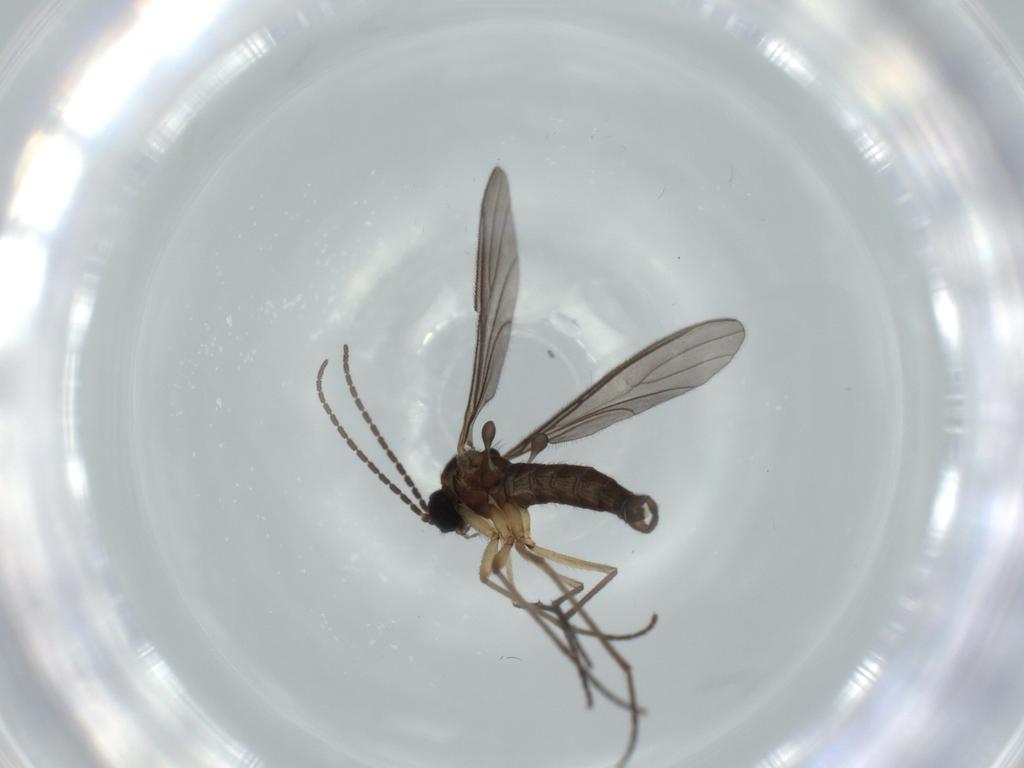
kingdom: Animalia
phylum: Arthropoda
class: Insecta
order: Diptera
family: Sciaridae
